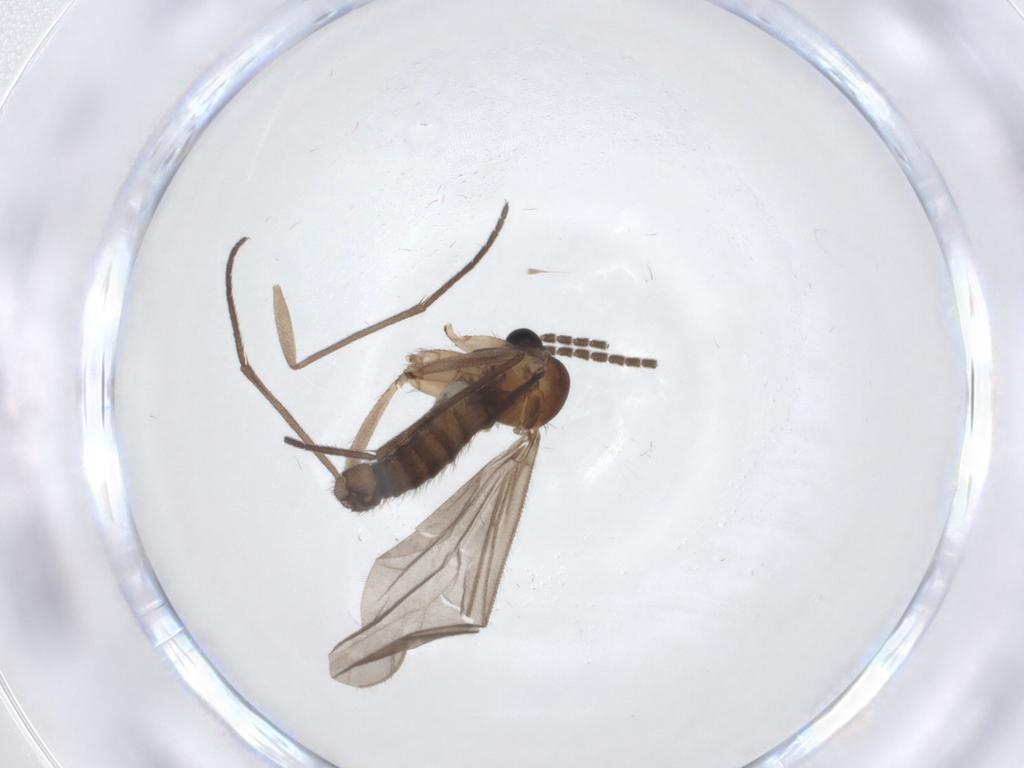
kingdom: Animalia
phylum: Arthropoda
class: Insecta
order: Diptera
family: Sciaridae
